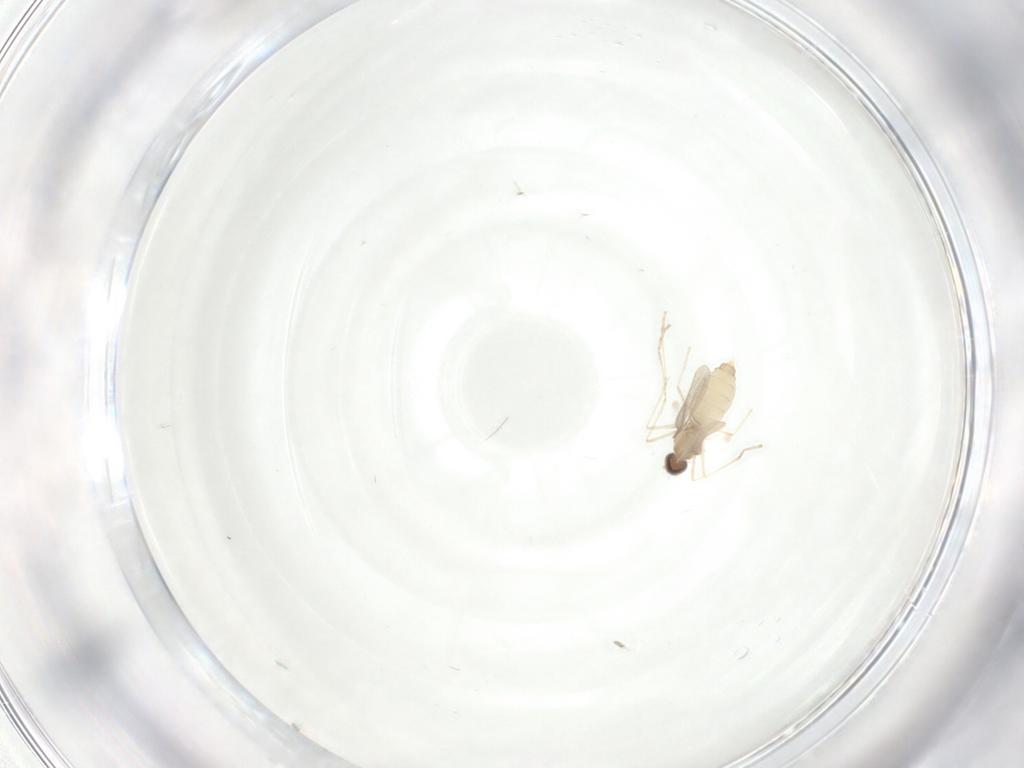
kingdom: Animalia
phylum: Arthropoda
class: Insecta
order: Diptera
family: Phoridae
